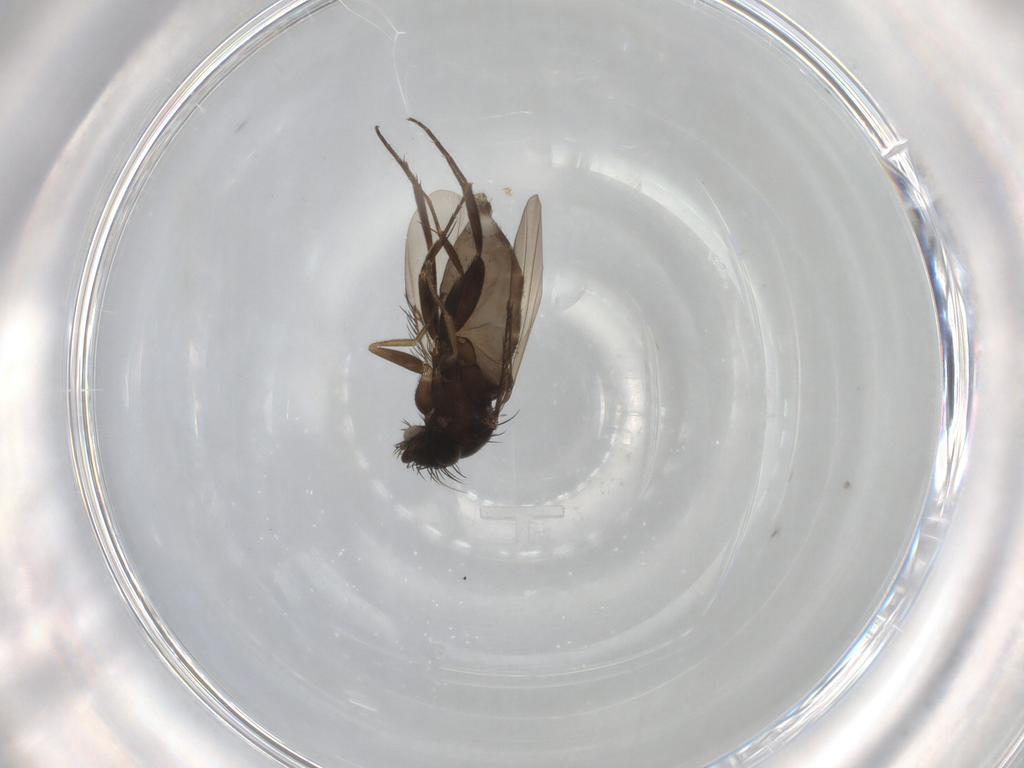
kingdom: Animalia
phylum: Arthropoda
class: Insecta
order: Diptera
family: Phoridae
